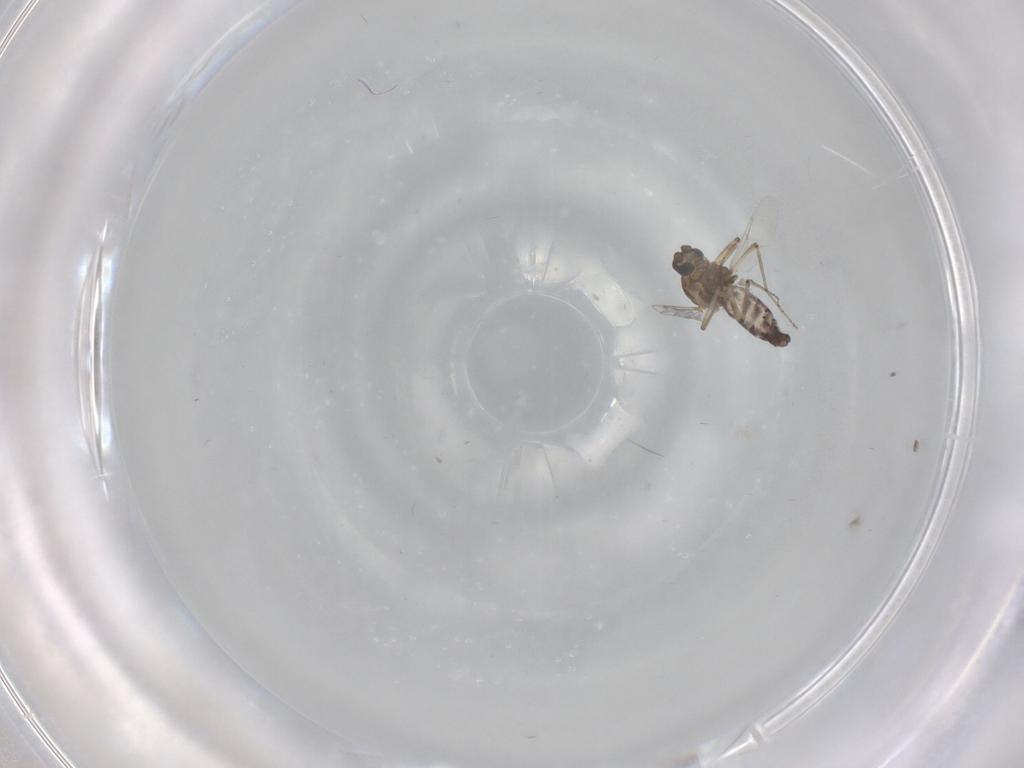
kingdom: Animalia
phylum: Arthropoda
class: Insecta
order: Diptera
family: Ceratopogonidae
